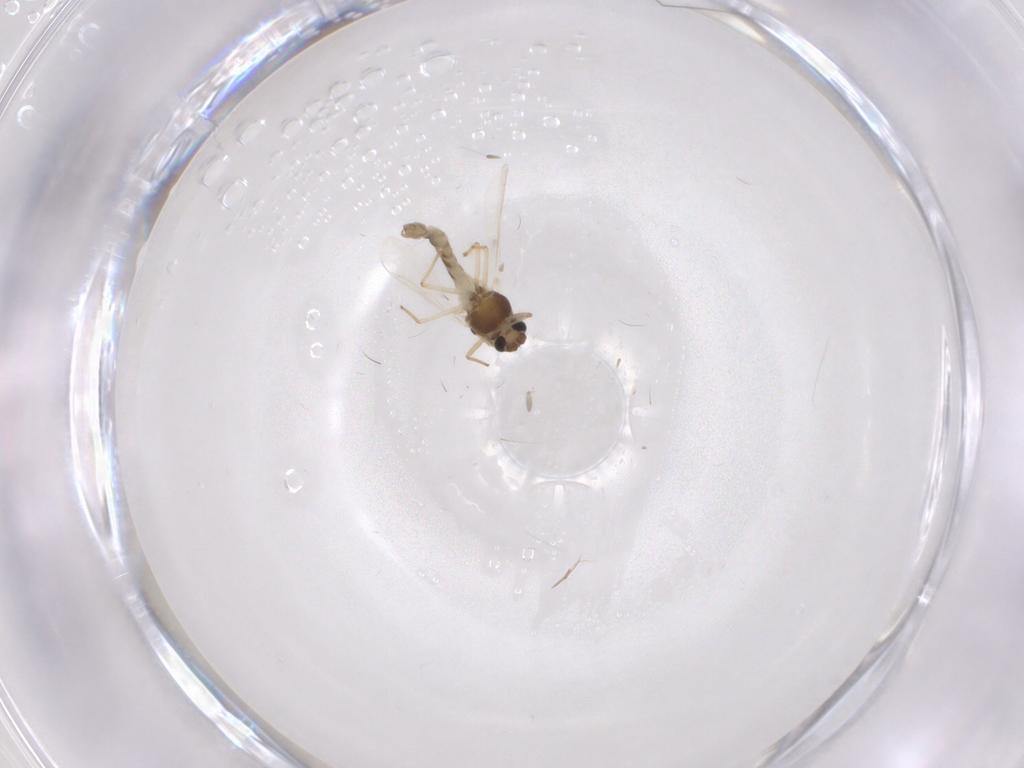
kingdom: Animalia
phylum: Arthropoda
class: Insecta
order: Diptera
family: Chironomidae
